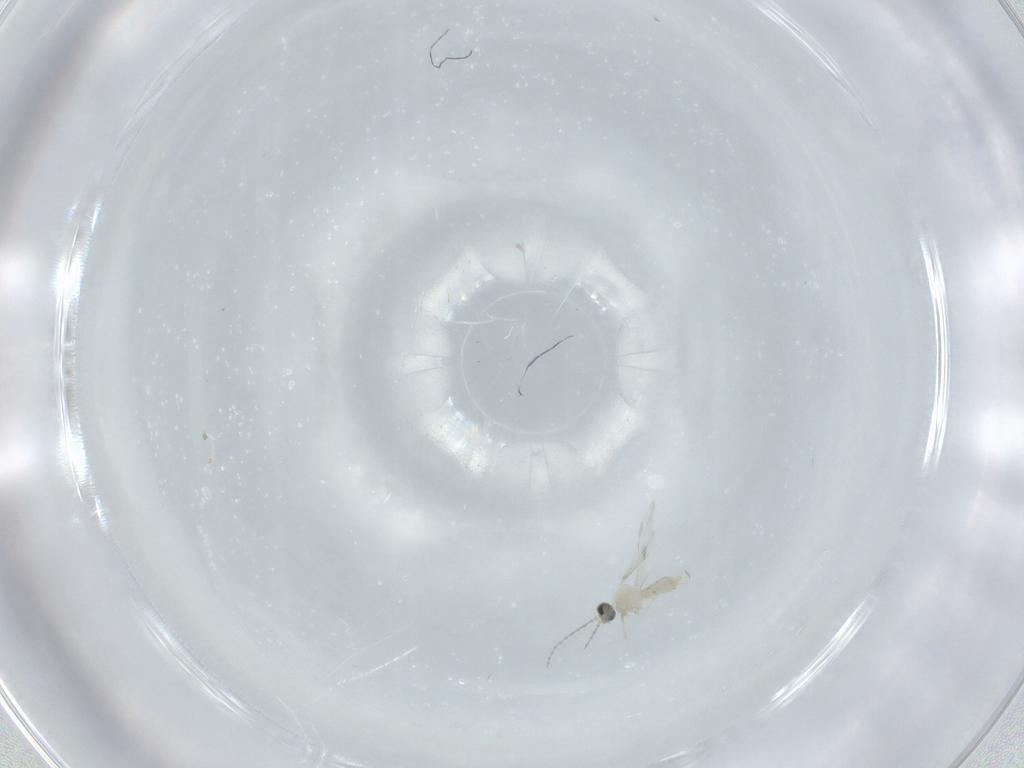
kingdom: Animalia
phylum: Arthropoda
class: Insecta
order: Diptera
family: Cecidomyiidae
